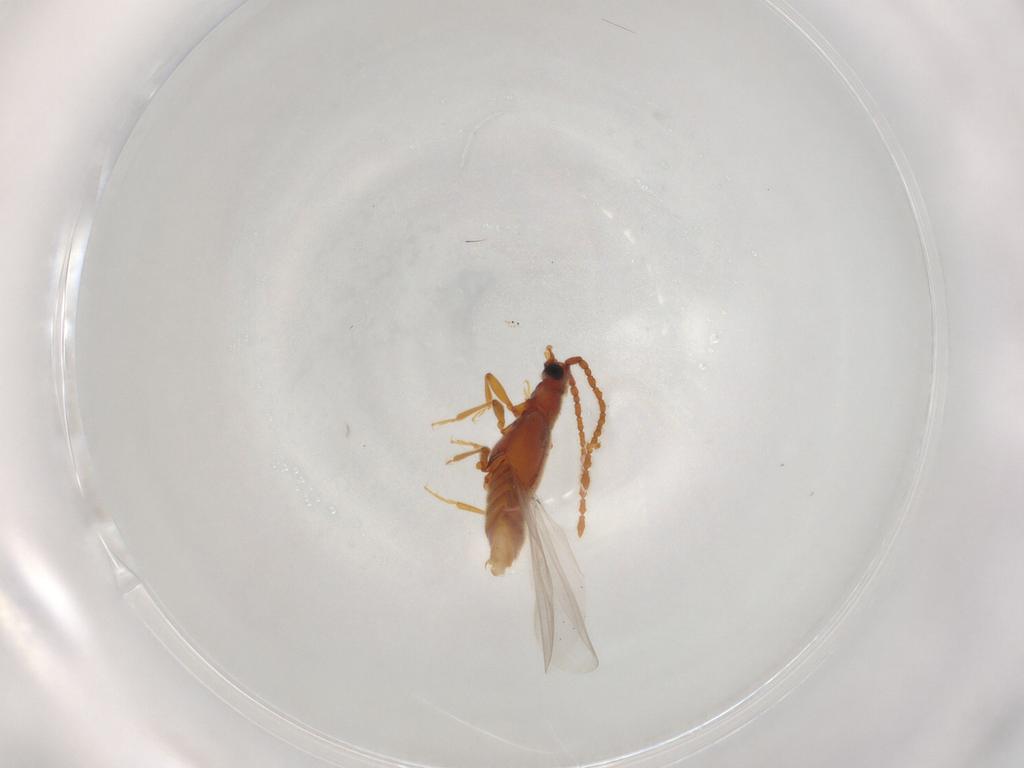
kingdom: Animalia
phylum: Arthropoda
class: Insecta
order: Coleoptera
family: Staphylinidae
